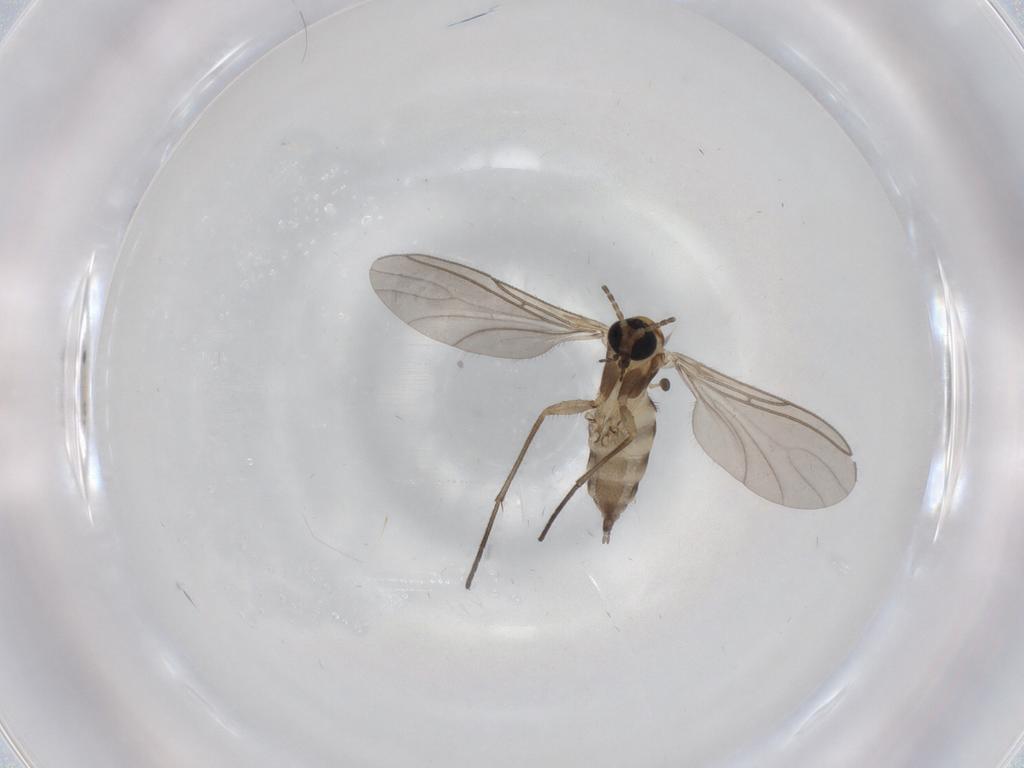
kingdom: Animalia
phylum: Arthropoda
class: Insecta
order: Diptera
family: Sciaridae
